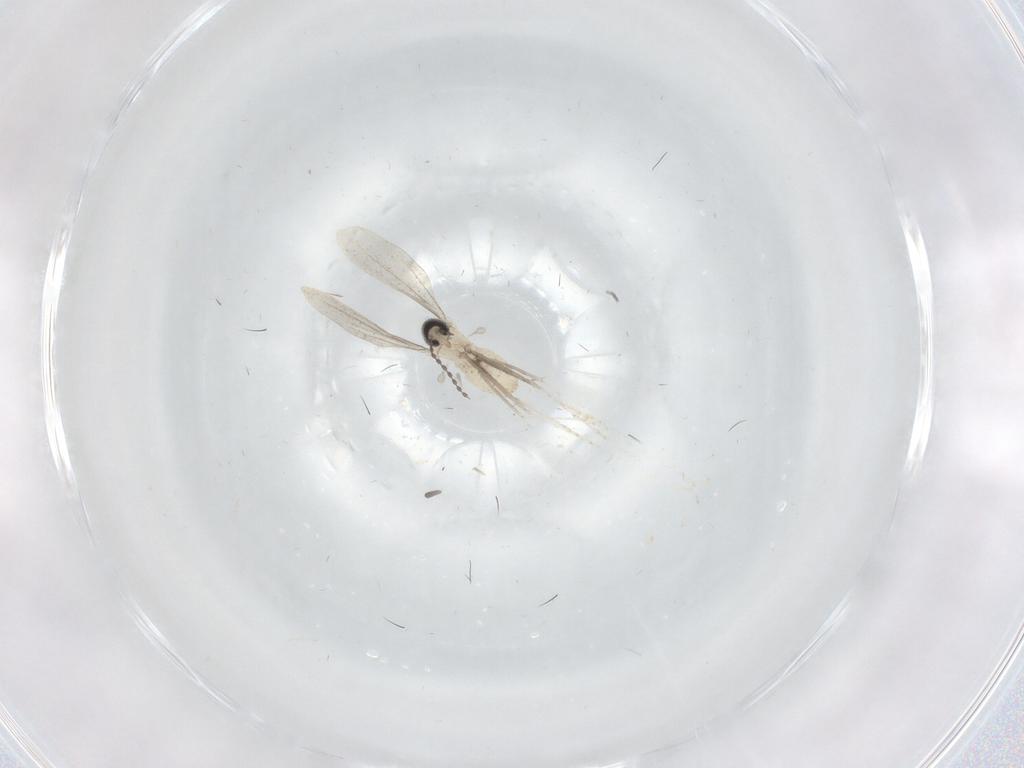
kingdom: Animalia
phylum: Arthropoda
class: Insecta
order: Diptera
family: Cecidomyiidae
